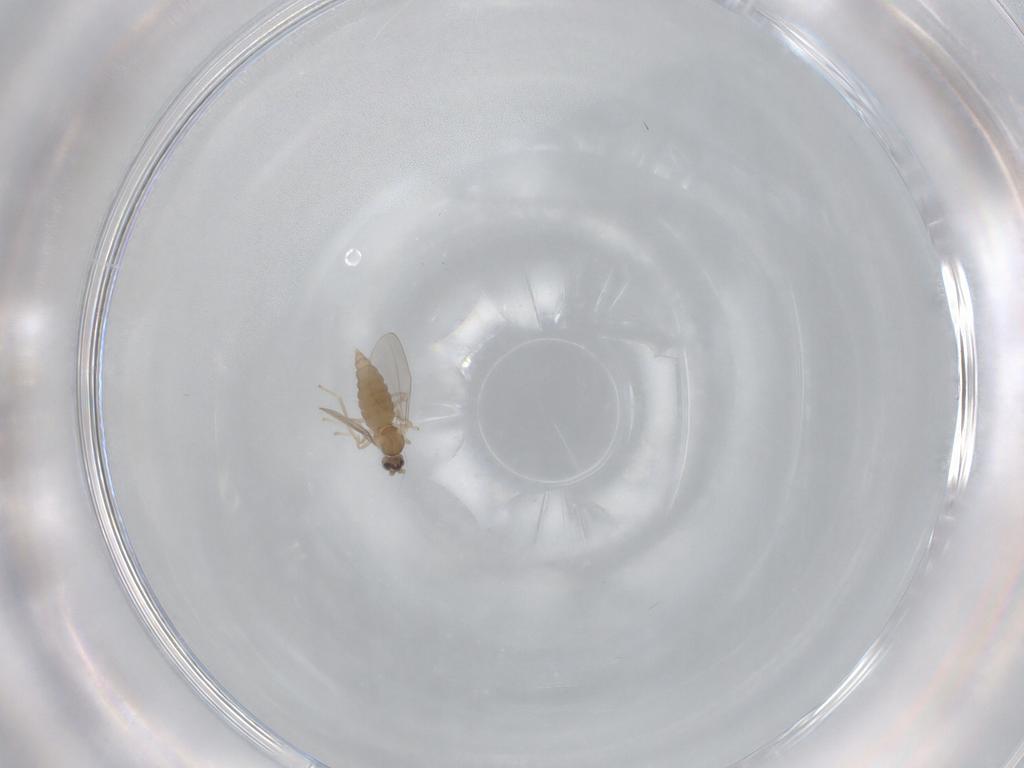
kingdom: Animalia
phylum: Arthropoda
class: Insecta
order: Diptera
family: Cecidomyiidae
